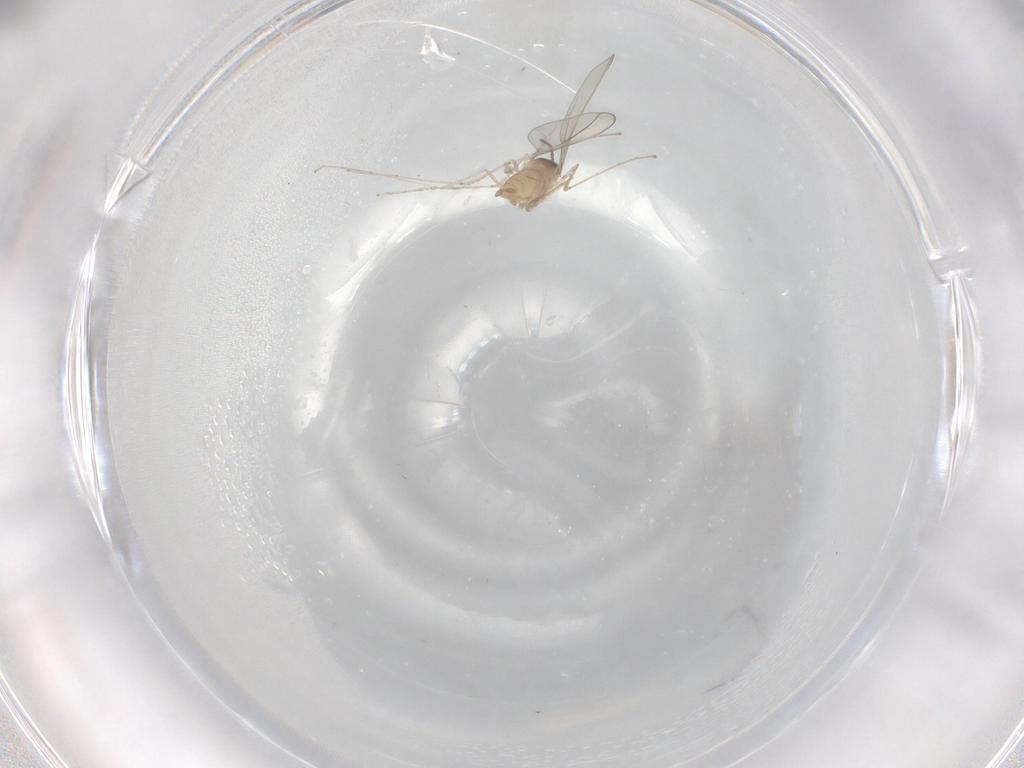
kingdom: Animalia
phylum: Arthropoda
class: Insecta
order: Diptera
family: Cecidomyiidae
